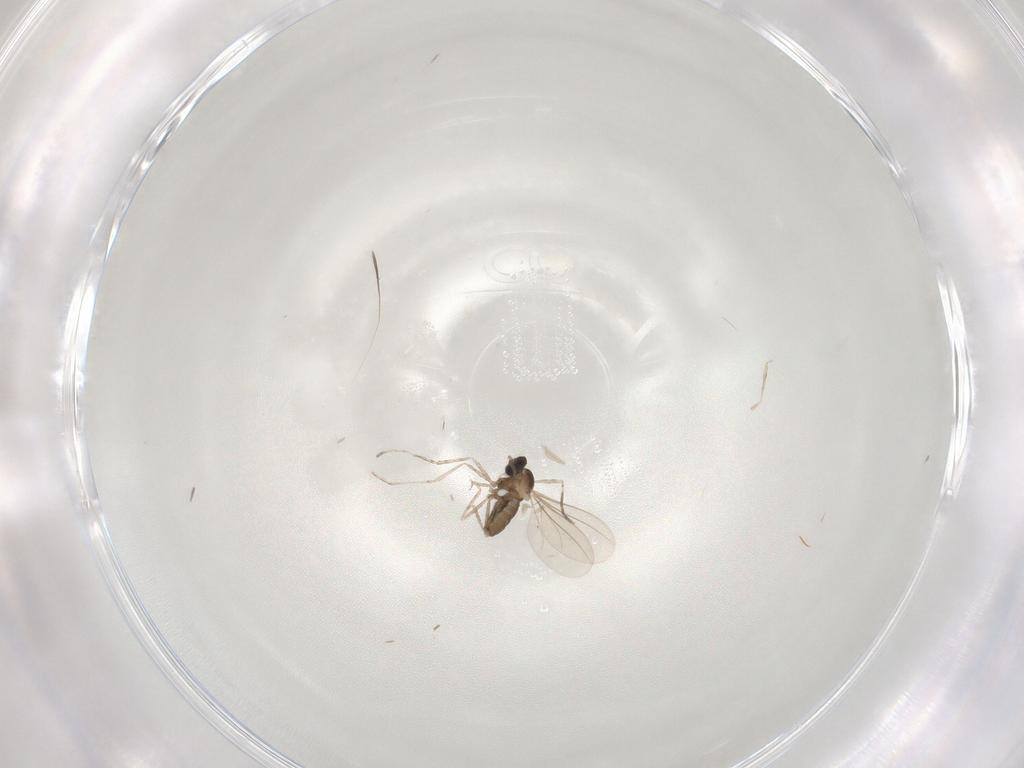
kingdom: Animalia
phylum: Arthropoda
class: Insecta
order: Diptera
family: Cecidomyiidae
